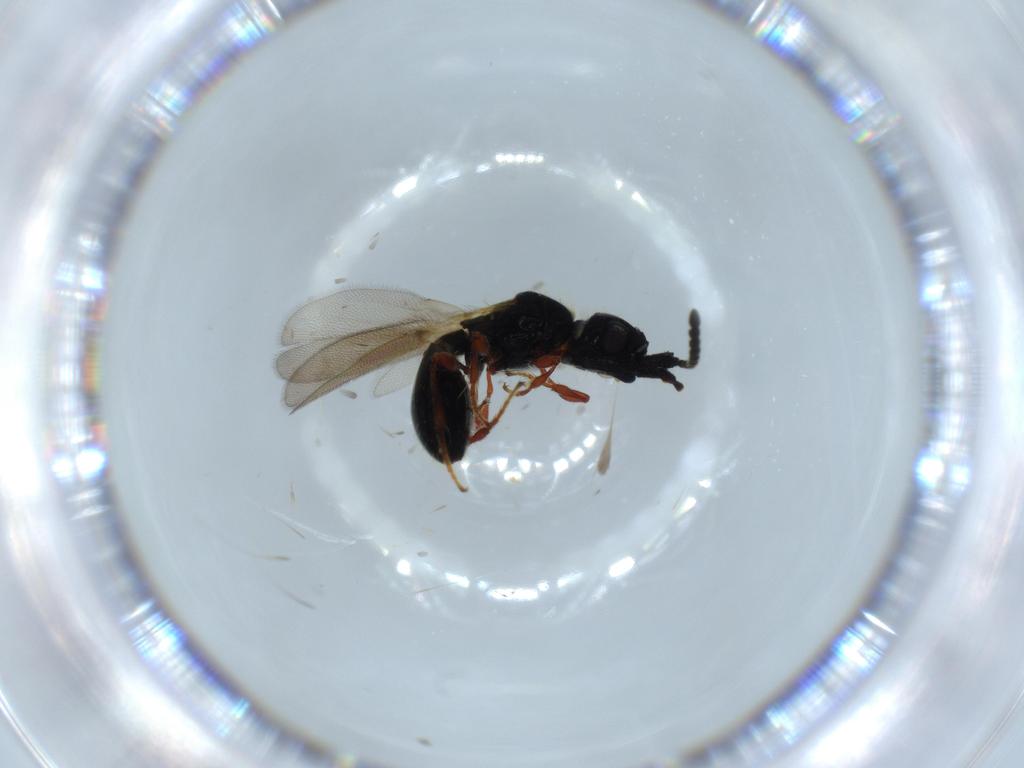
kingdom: Animalia
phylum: Arthropoda
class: Insecta
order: Hymenoptera
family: Diapriidae
